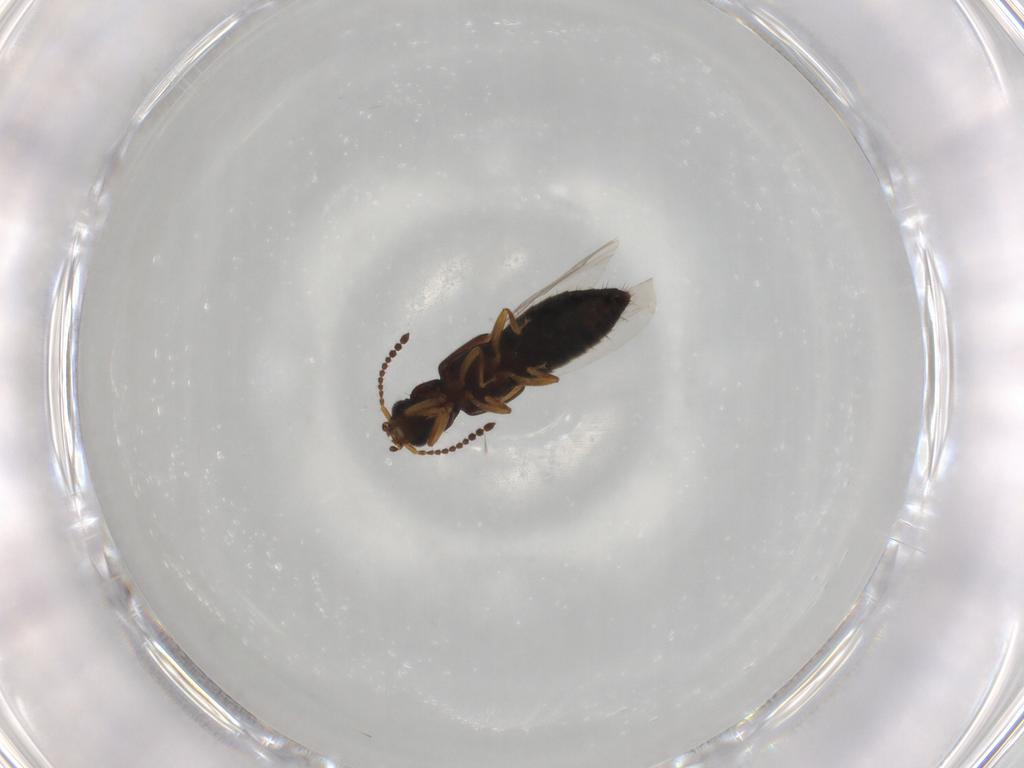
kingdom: Animalia
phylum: Arthropoda
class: Insecta
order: Coleoptera
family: Staphylinidae
